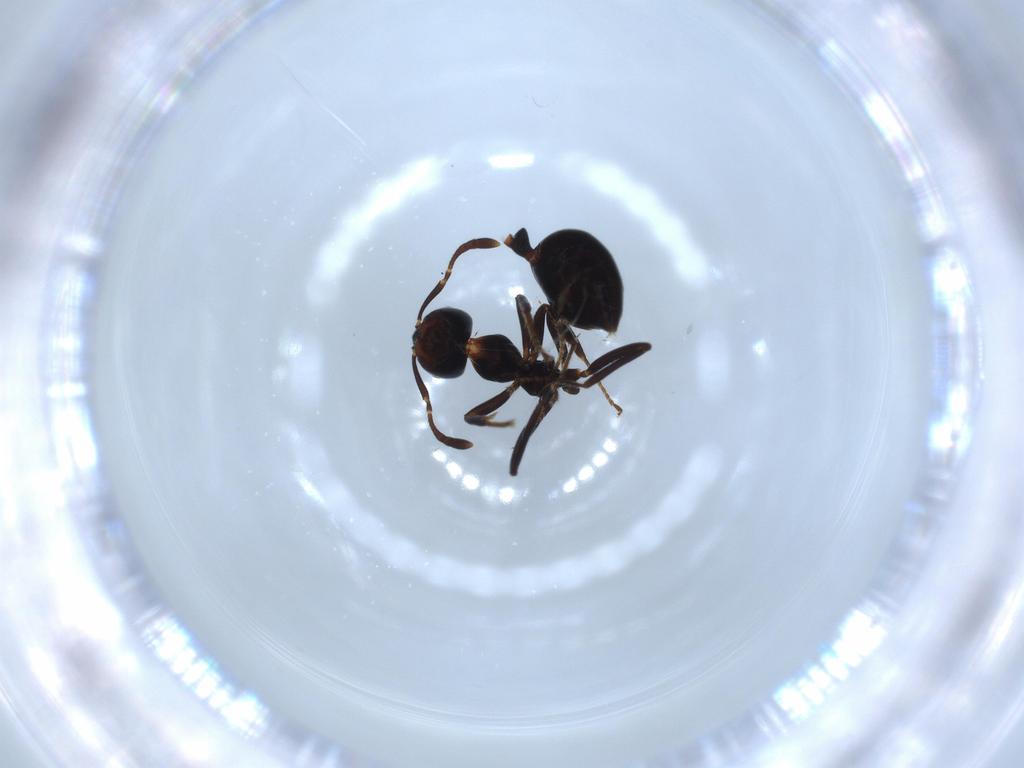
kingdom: Animalia
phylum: Arthropoda
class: Insecta
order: Hymenoptera
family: Formicidae
